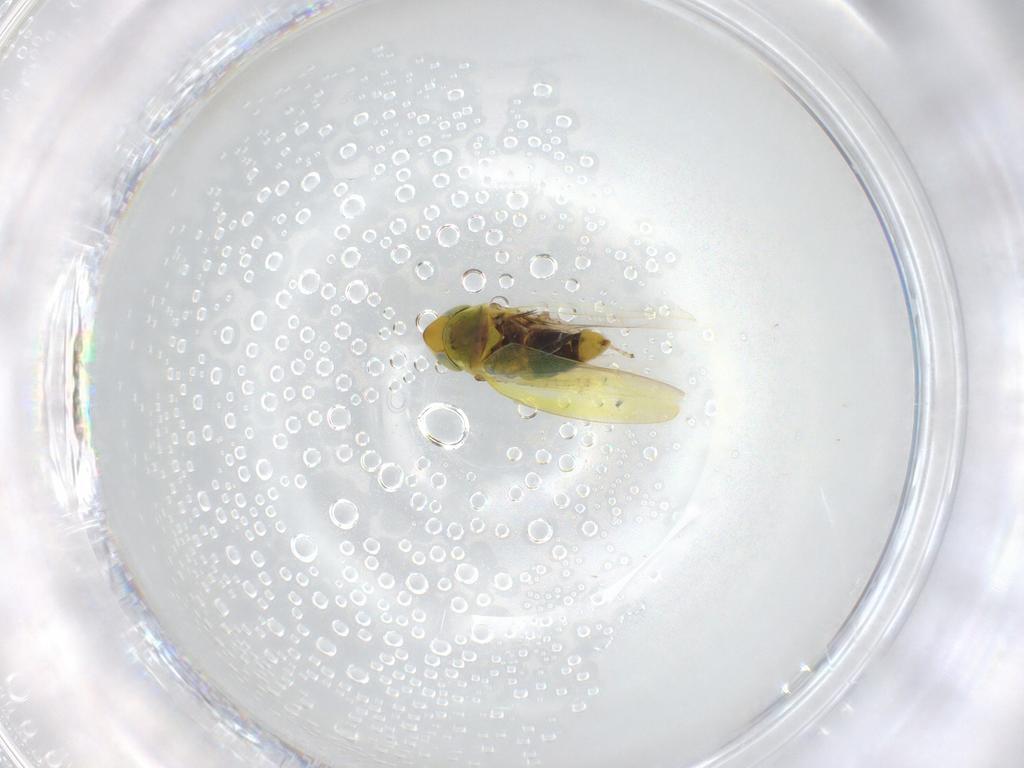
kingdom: Animalia
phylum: Arthropoda
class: Insecta
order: Hemiptera
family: Cicadellidae
